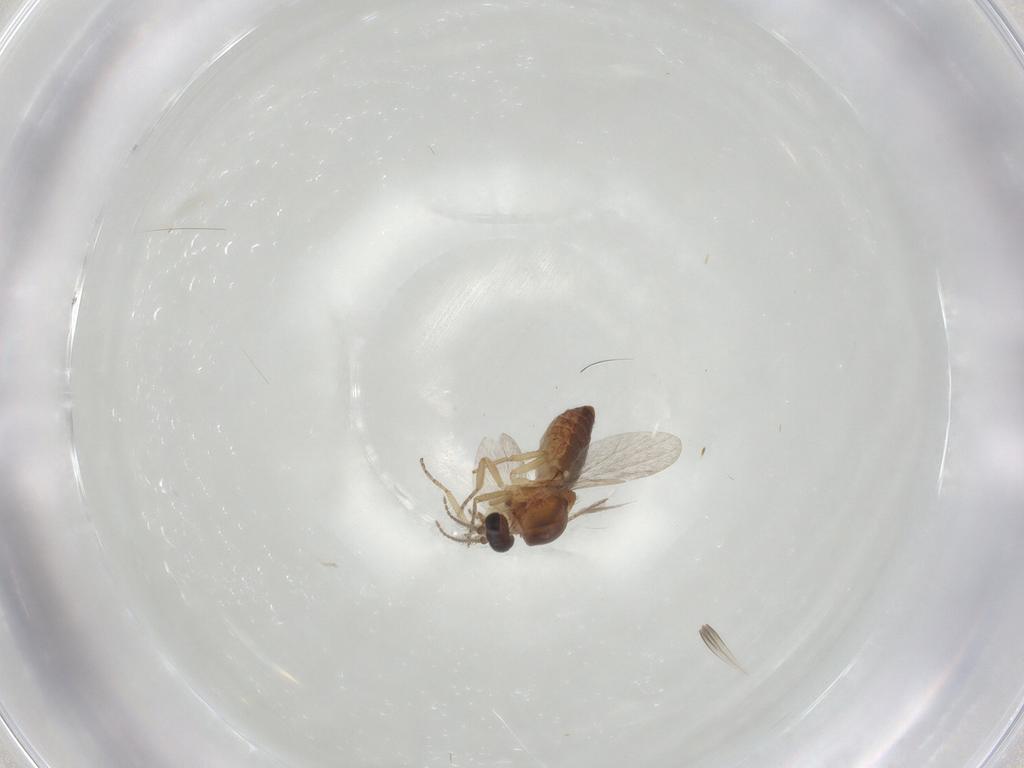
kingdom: Animalia
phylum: Arthropoda
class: Insecta
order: Diptera
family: Ceratopogonidae
